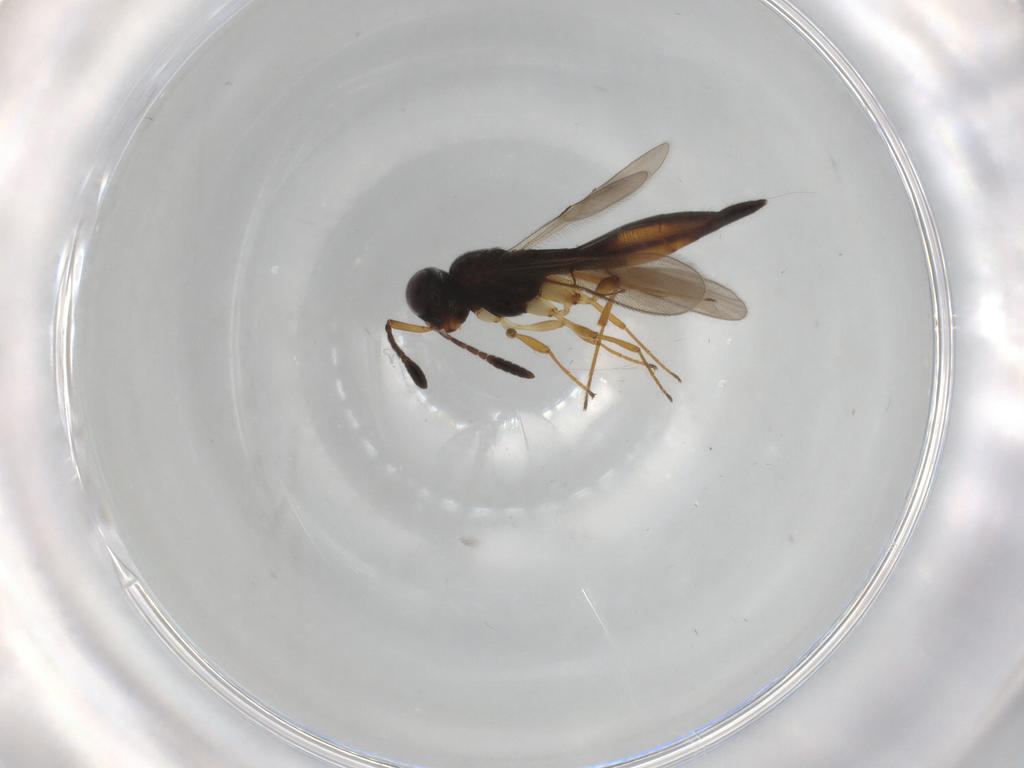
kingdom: Animalia
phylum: Arthropoda
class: Insecta
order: Hymenoptera
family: Scelionidae
